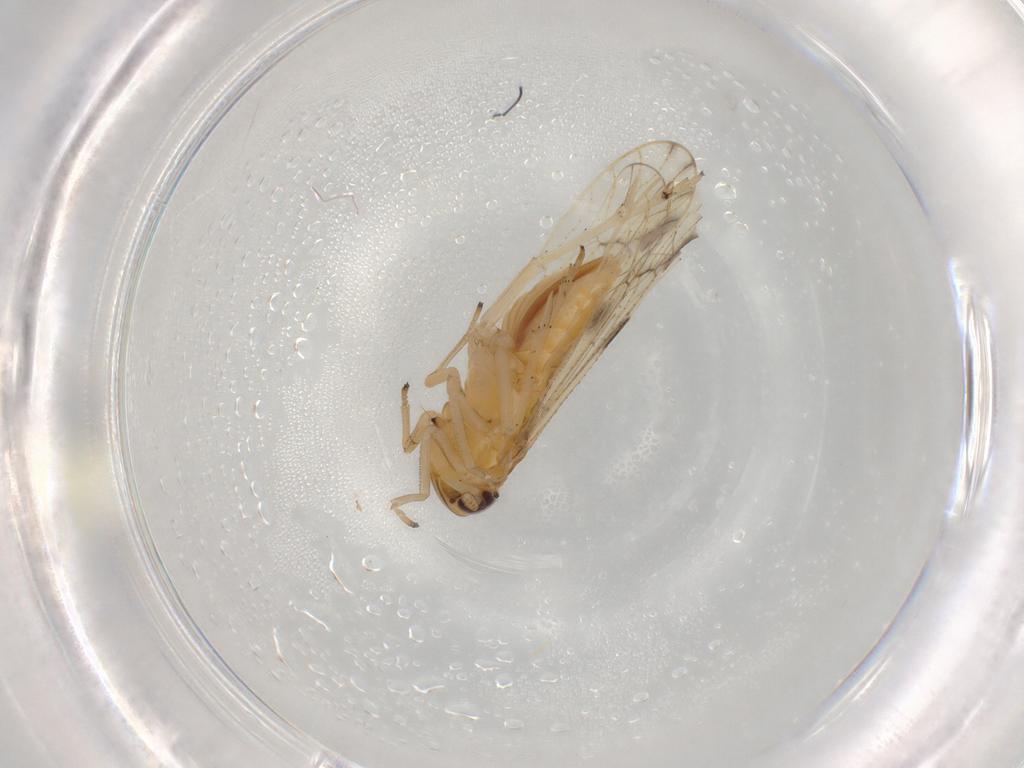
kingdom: Animalia
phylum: Arthropoda
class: Insecta
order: Hemiptera
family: Delphacidae
